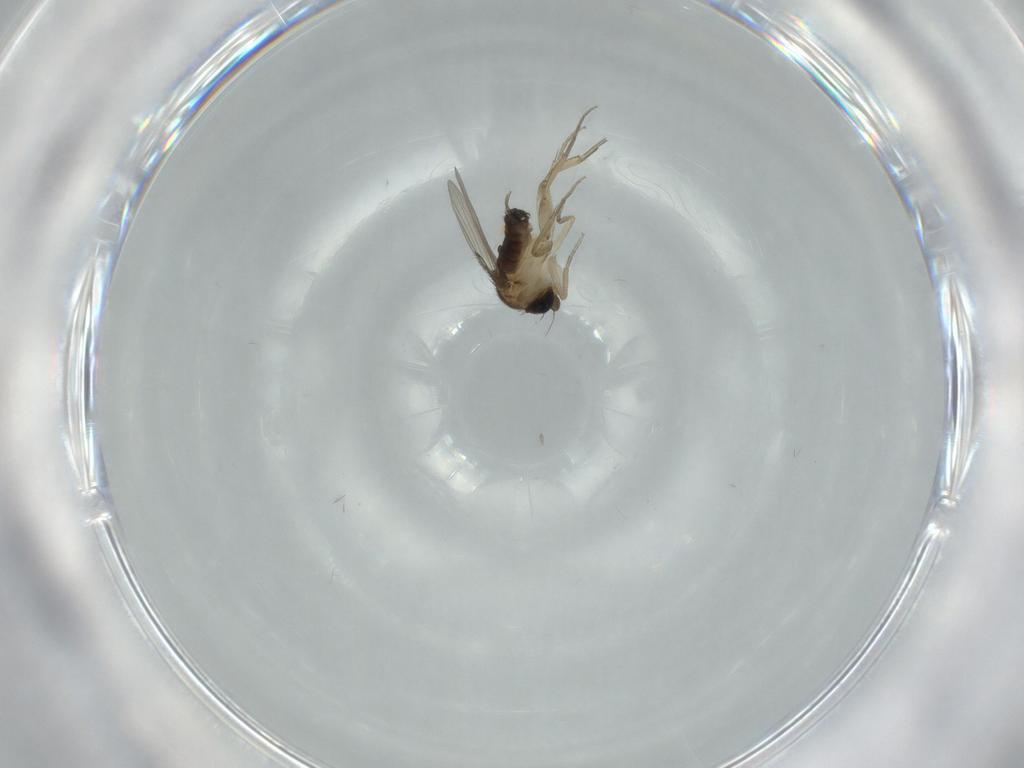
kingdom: Animalia
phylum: Arthropoda
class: Insecta
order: Diptera
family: Phoridae
